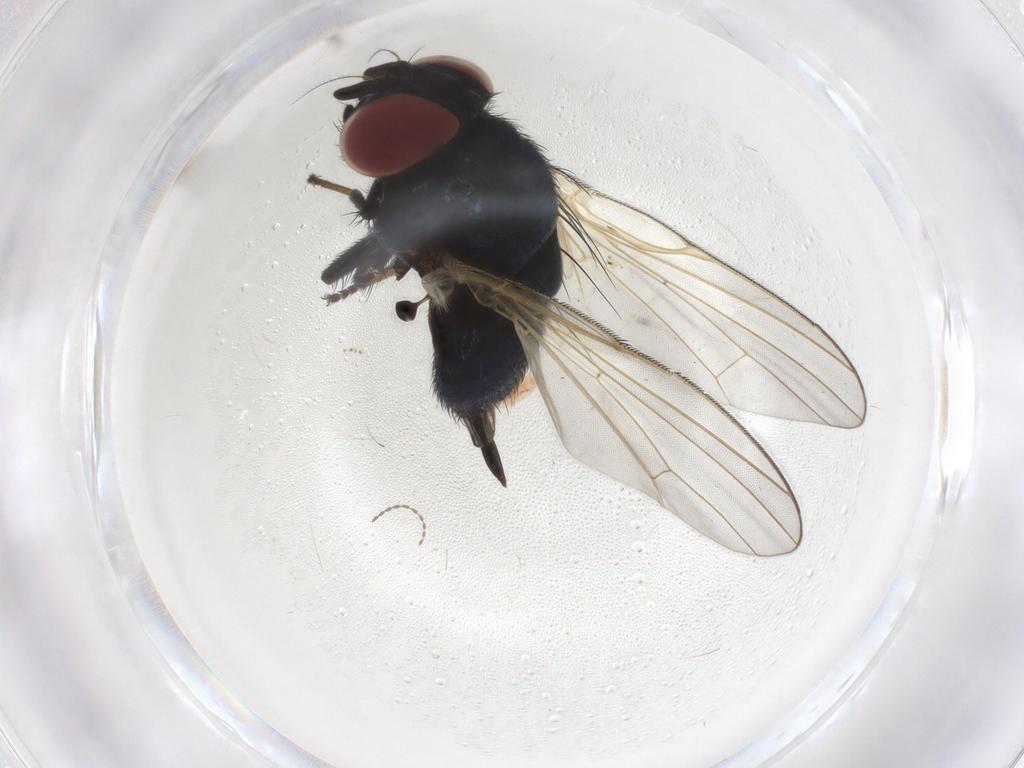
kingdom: Animalia
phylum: Arthropoda
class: Insecta
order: Diptera
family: Lonchaeidae
